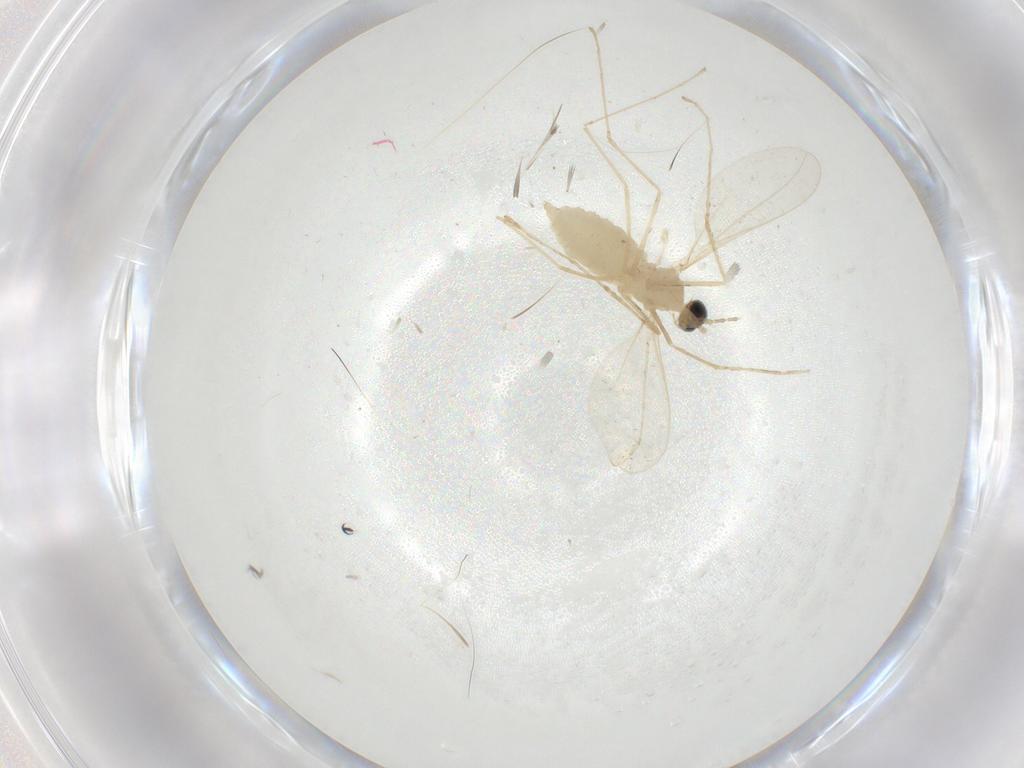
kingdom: Animalia
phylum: Arthropoda
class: Insecta
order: Diptera
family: Cecidomyiidae
